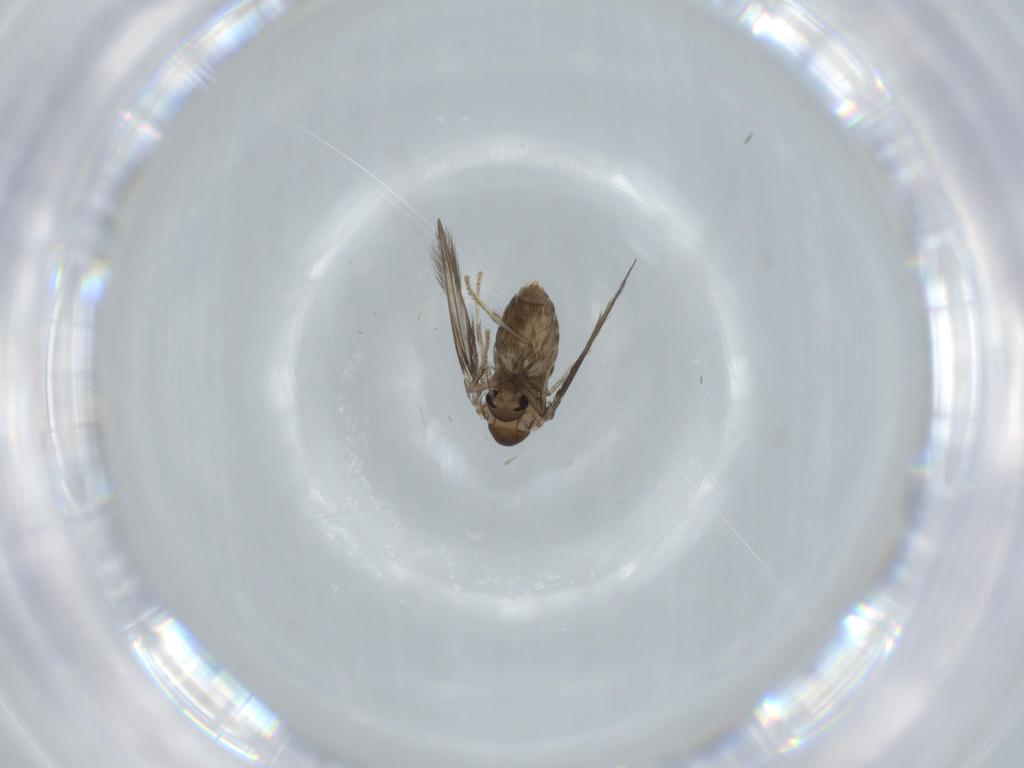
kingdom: Animalia
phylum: Arthropoda
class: Insecta
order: Diptera
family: Psychodidae
